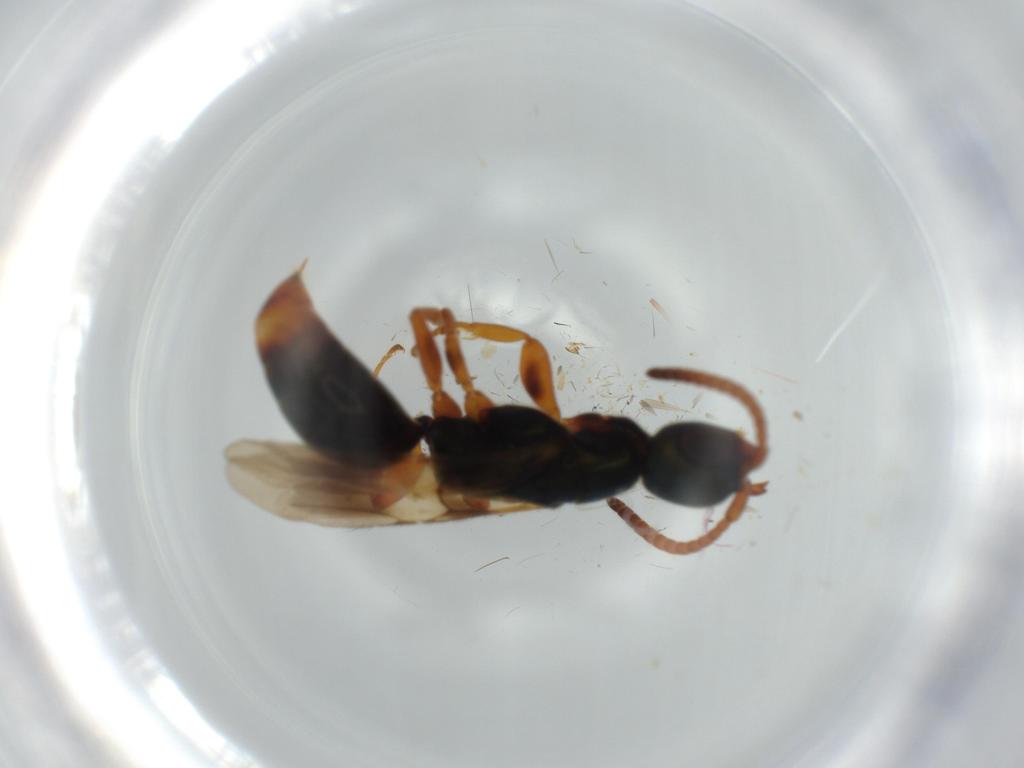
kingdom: Animalia
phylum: Arthropoda
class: Insecta
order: Hymenoptera
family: Bethylidae
